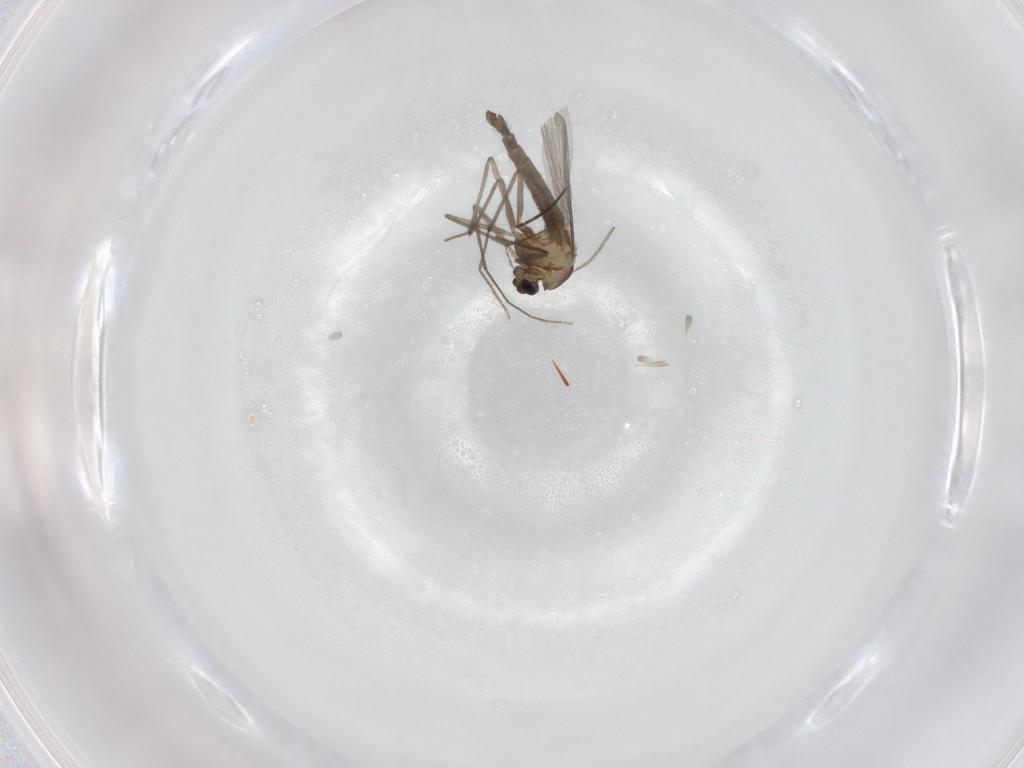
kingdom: Animalia
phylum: Arthropoda
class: Insecta
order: Diptera
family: Chironomidae
